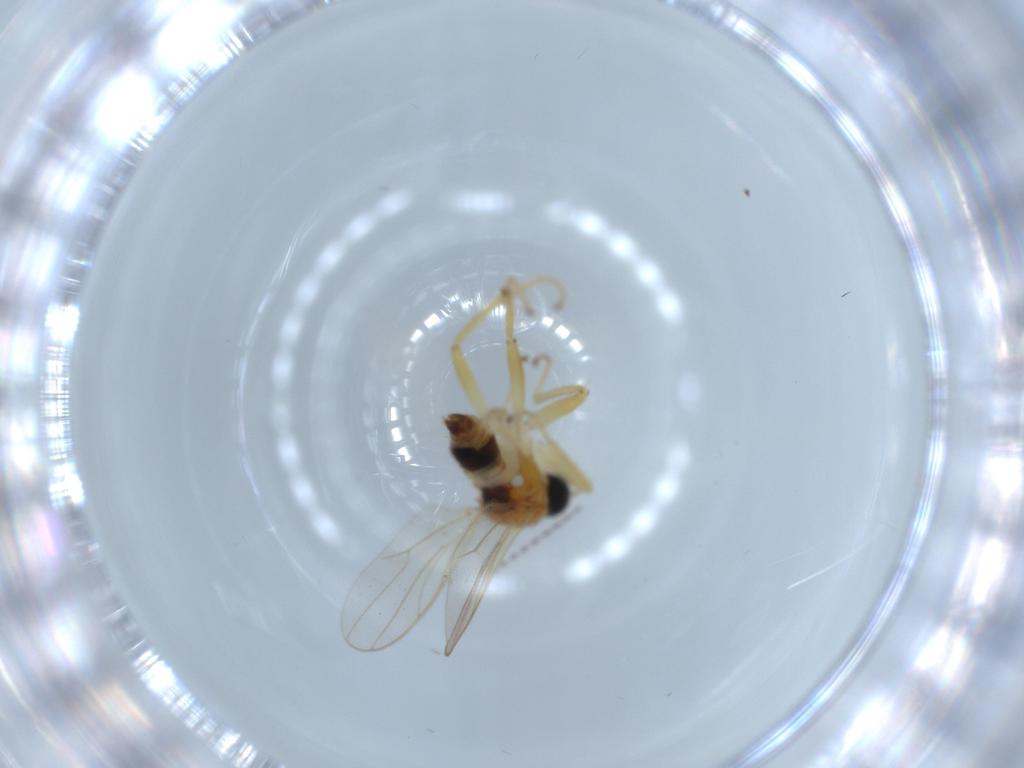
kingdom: Animalia
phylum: Arthropoda
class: Insecta
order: Diptera
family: Hybotidae
